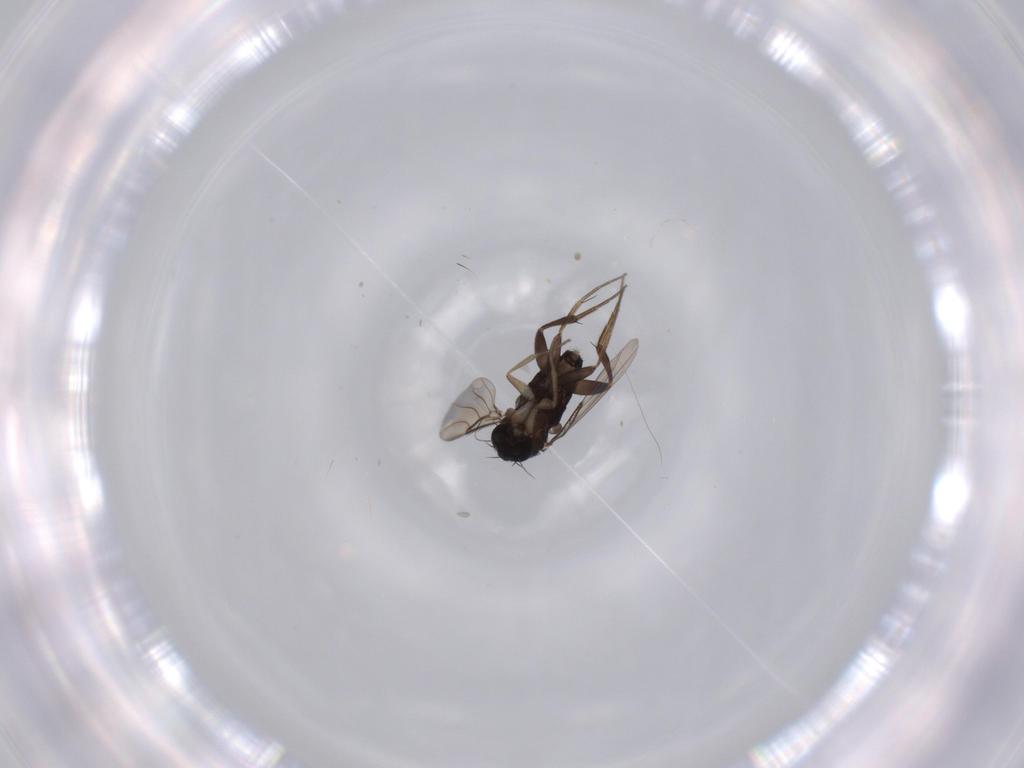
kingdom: Animalia
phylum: Arthropoda
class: Insecta
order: Diptera
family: Phoridae
